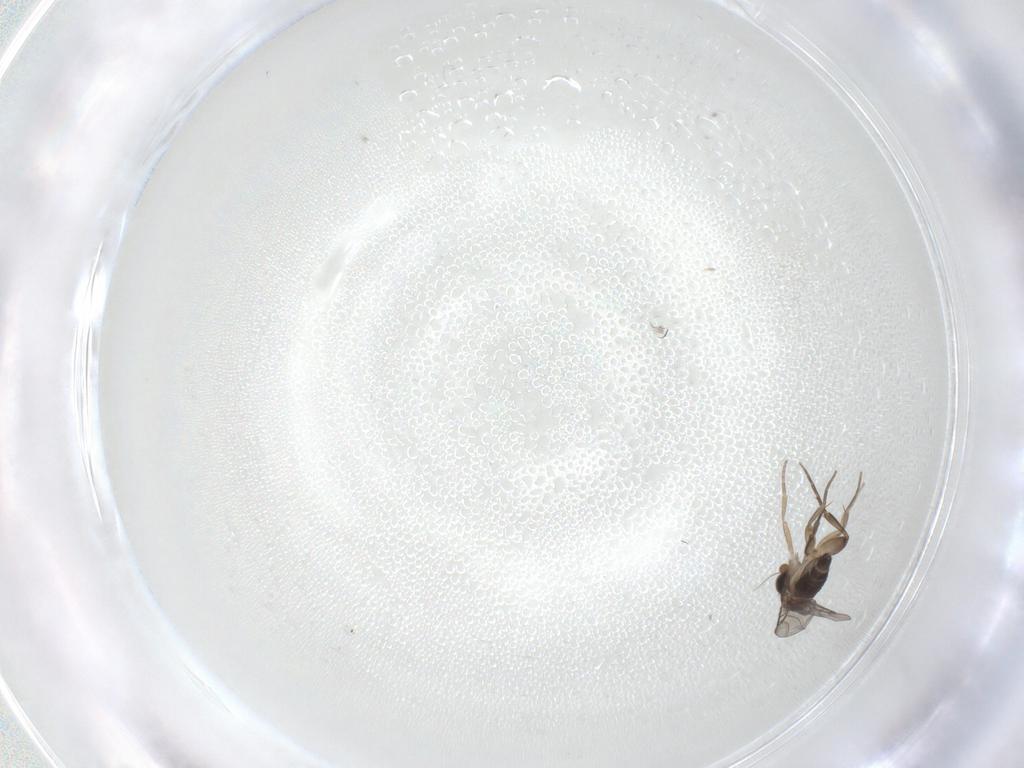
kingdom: Animalia
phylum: Arthropoda
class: Insecta
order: Diptera
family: Phoridae
